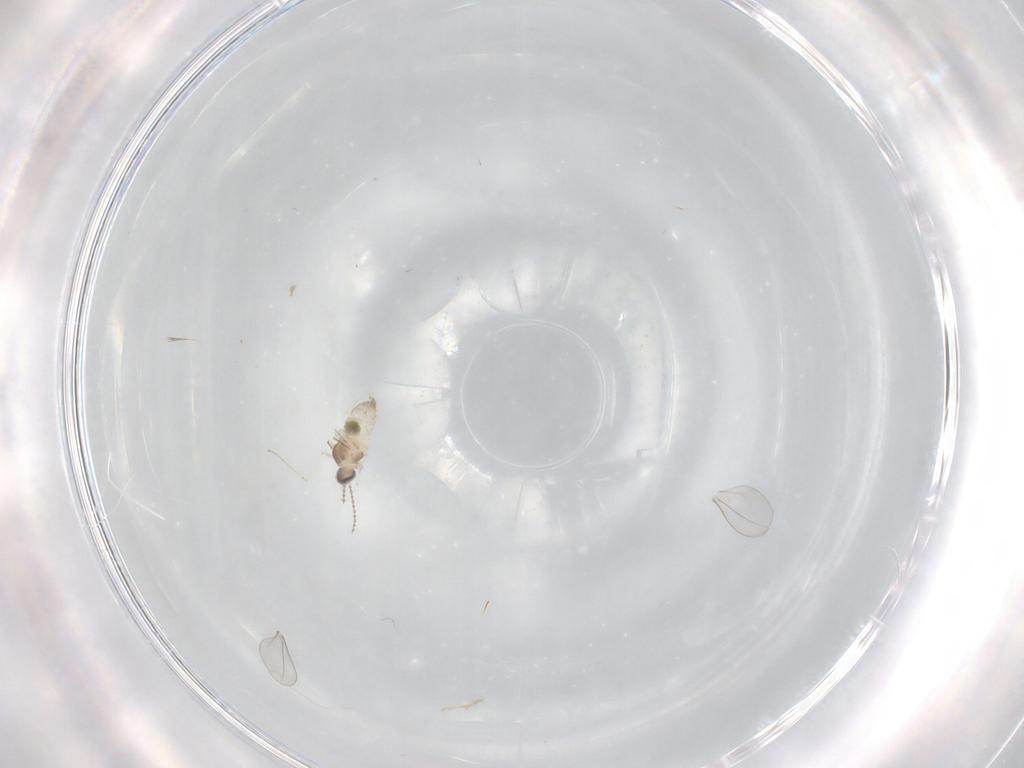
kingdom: Animalia
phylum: Arthropoda
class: Insecta
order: Diptera
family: Cecidomyiidae
